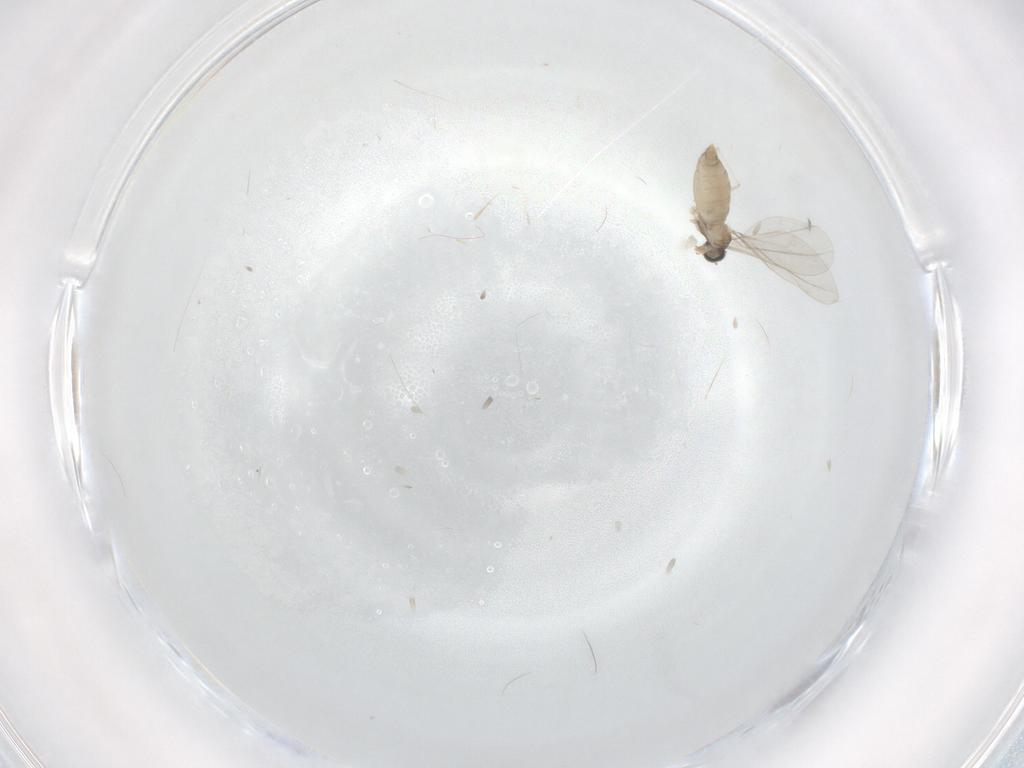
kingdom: Animalia
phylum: Arthropoda
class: Insecta
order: Diptera
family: Cecidomyiidae
